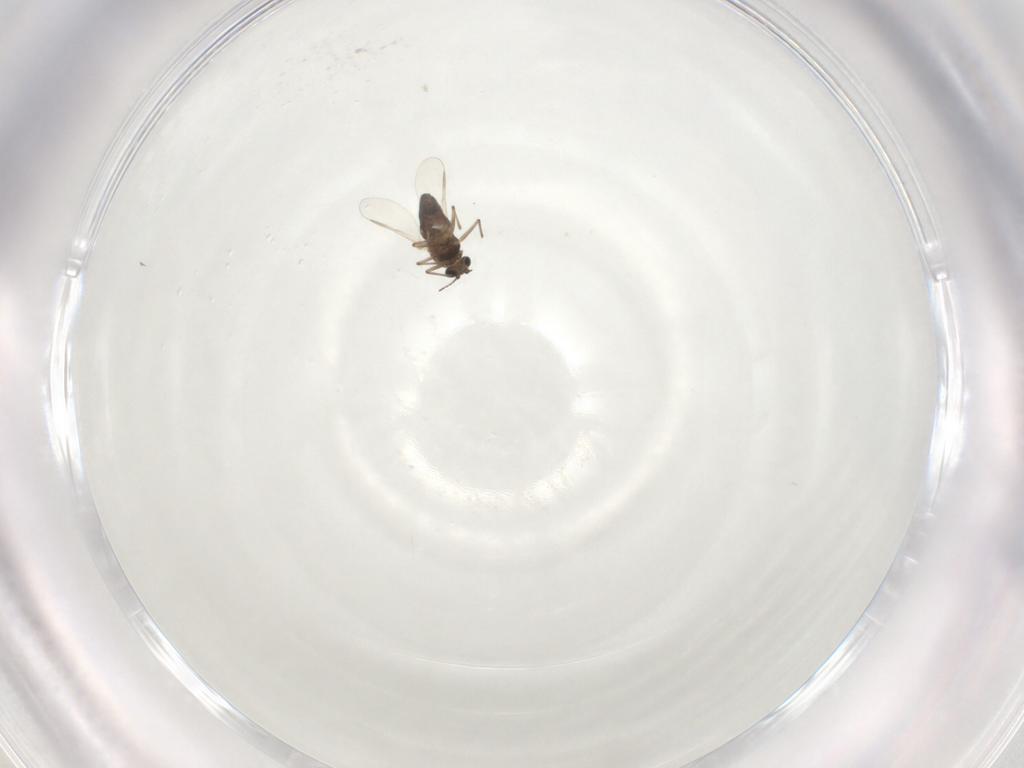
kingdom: Animalia
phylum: Arthropoda
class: Insecta
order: Diptera
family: Chironomidae
